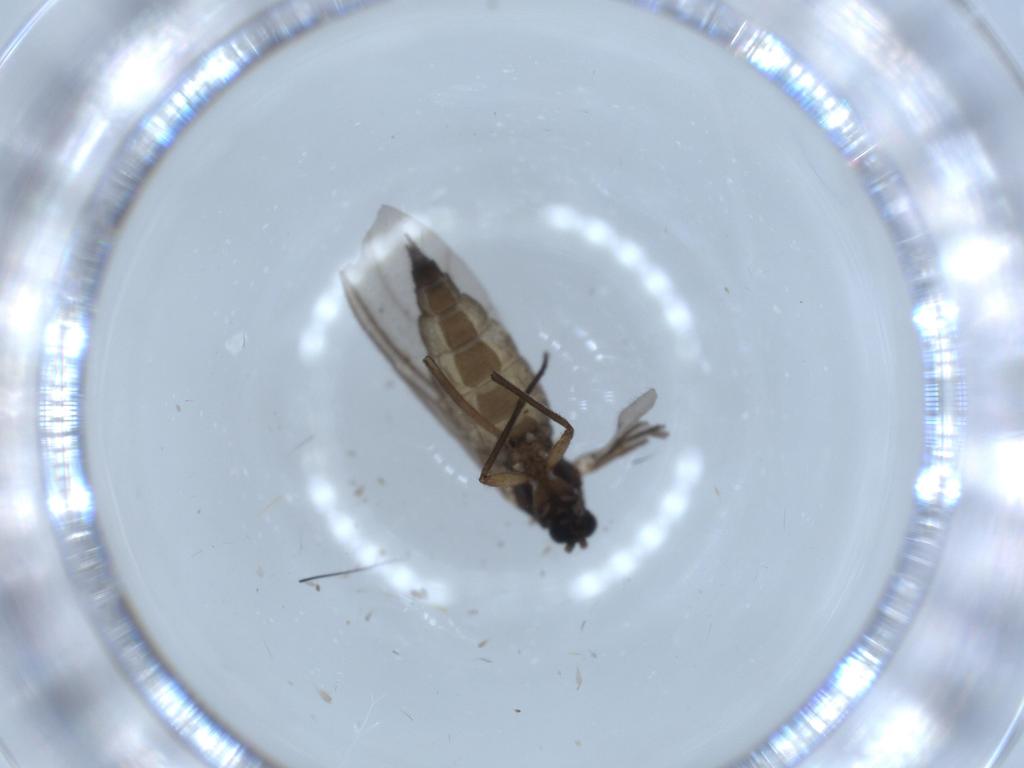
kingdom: Animalia
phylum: Arthropoda
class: Insecta
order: Diptera
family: Sciaridae
